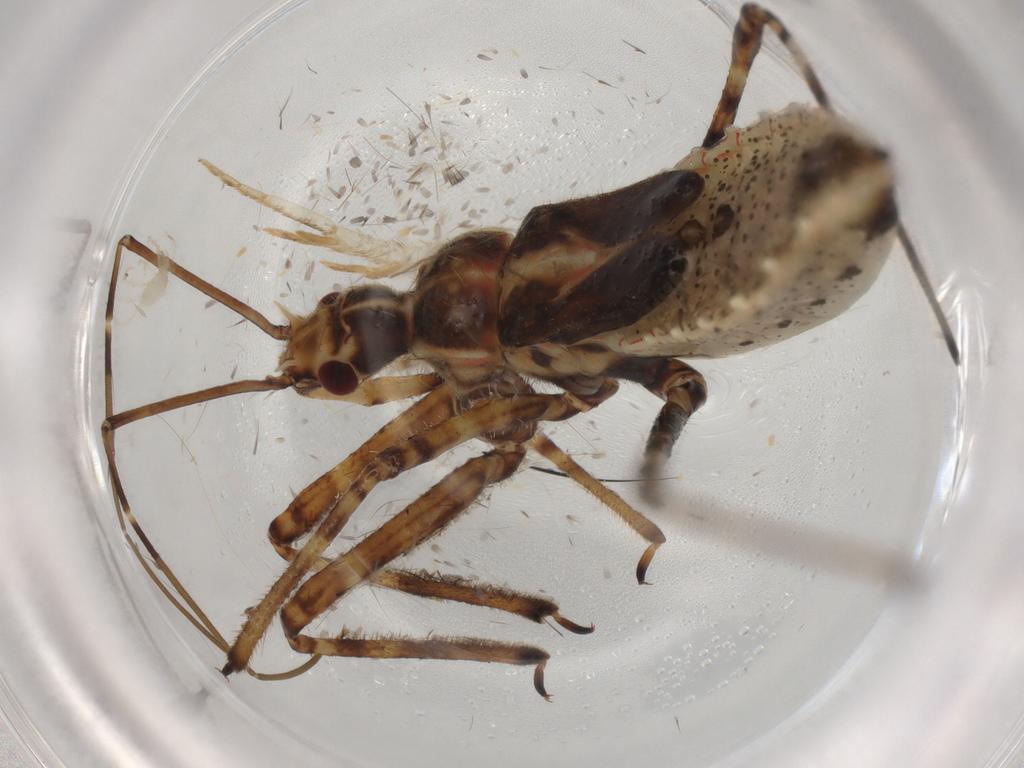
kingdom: Animalia
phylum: Arthropoda
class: Insecta
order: Hemiptera
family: Reduviidae
